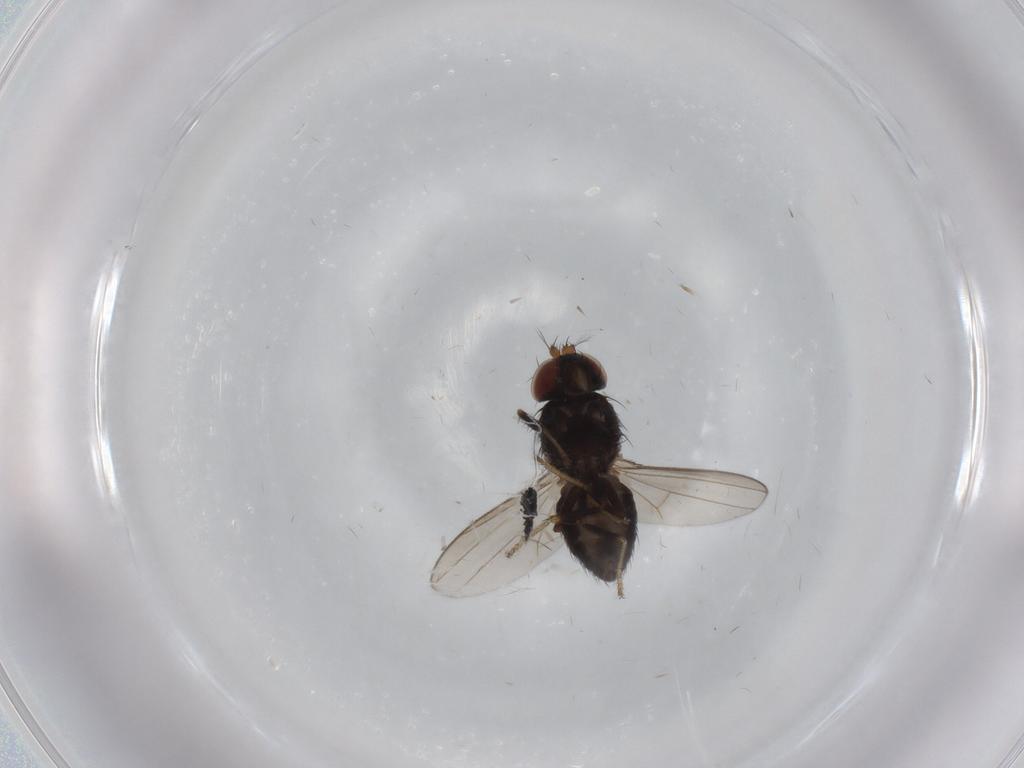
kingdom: Animalia
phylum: Arthropoda
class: Insecta
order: Diptera
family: Ephydridae
